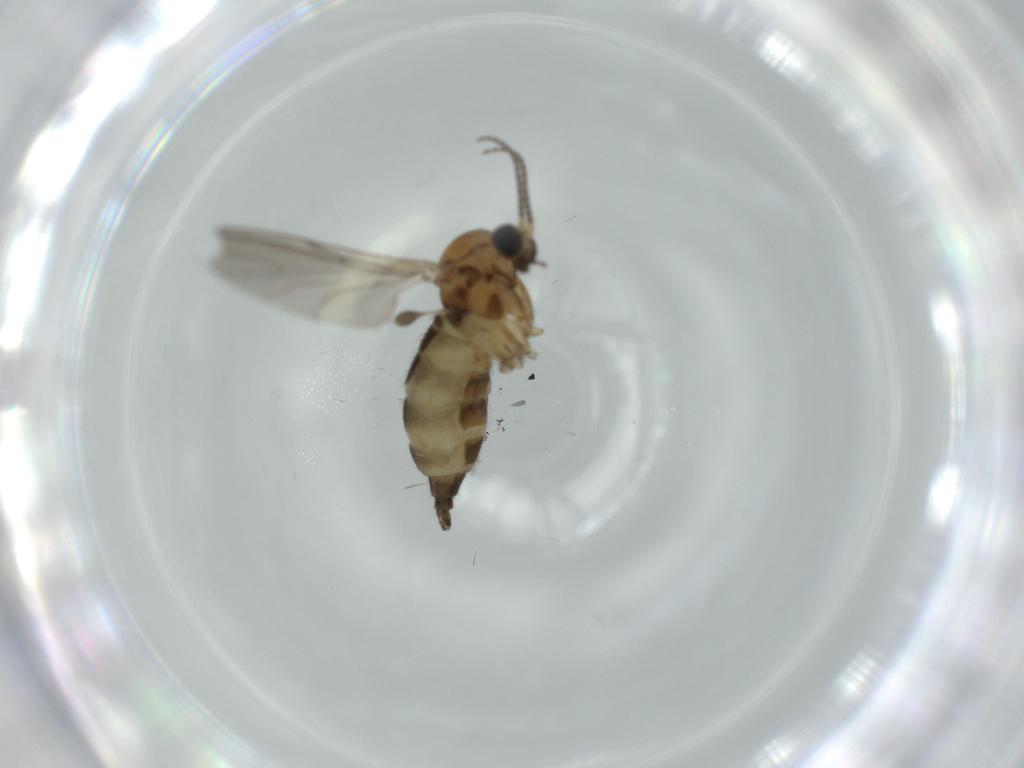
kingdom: Animalia
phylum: Arthropoda
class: Insecta
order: Diptera
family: Sciaridae
